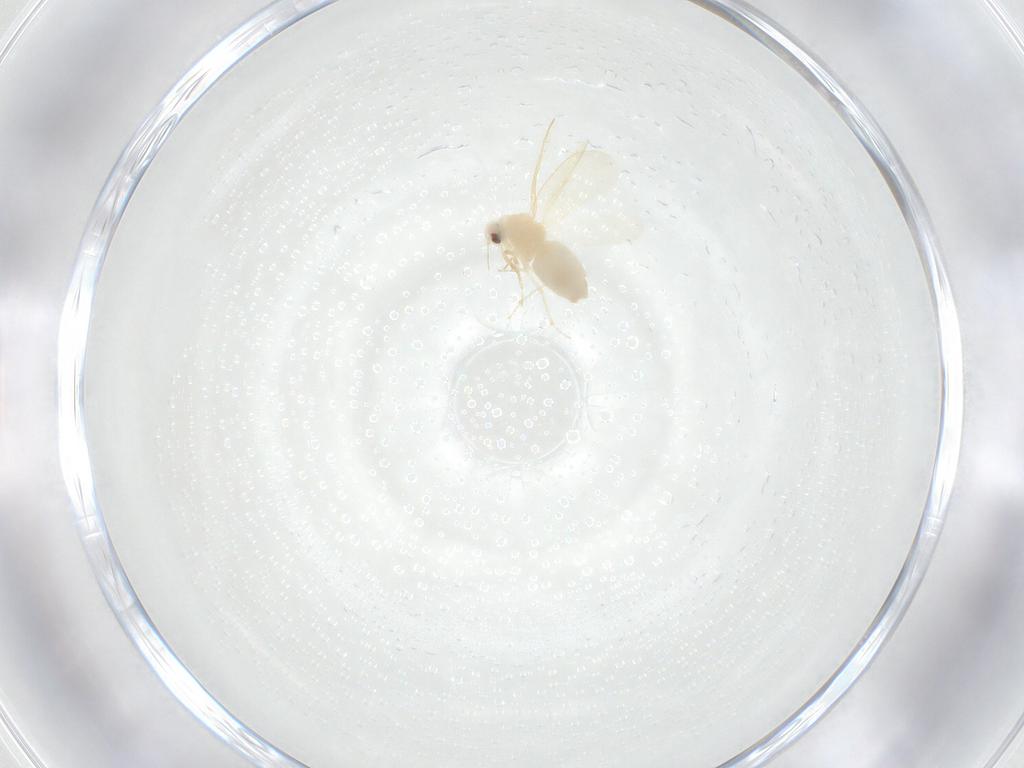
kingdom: Animalia
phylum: Arthropoda
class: Insecta
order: Hemiptera
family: Aleyrodidae
